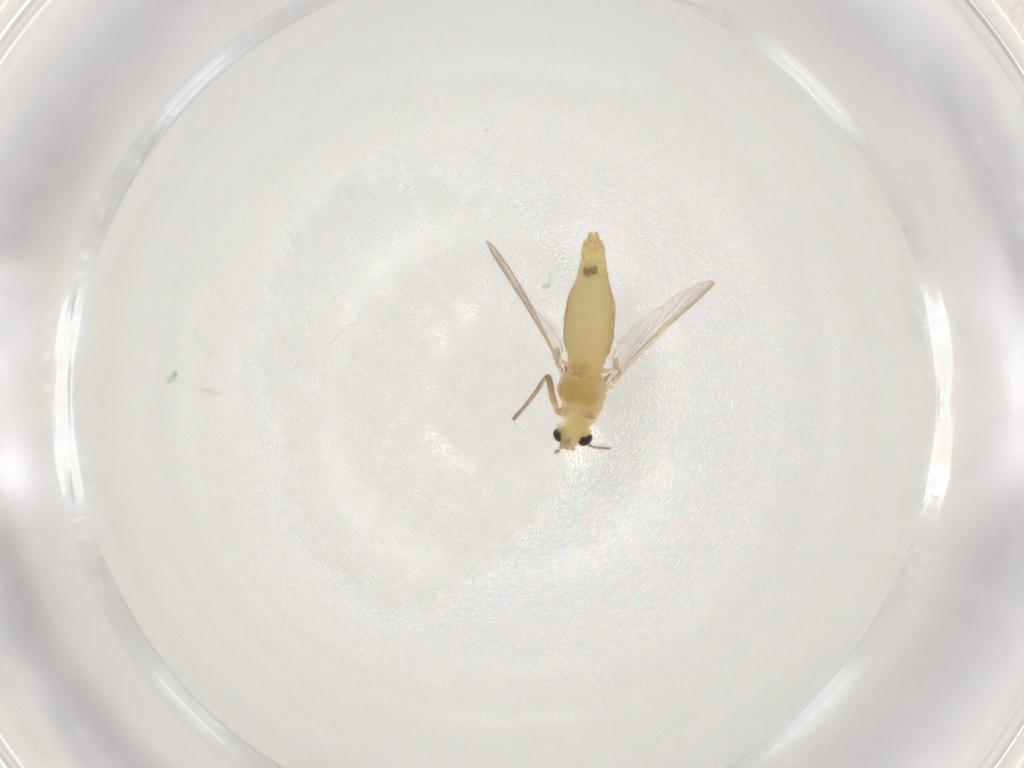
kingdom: Animalia
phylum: Arthropoda
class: Insecta
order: Diptera
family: Chironomidae
